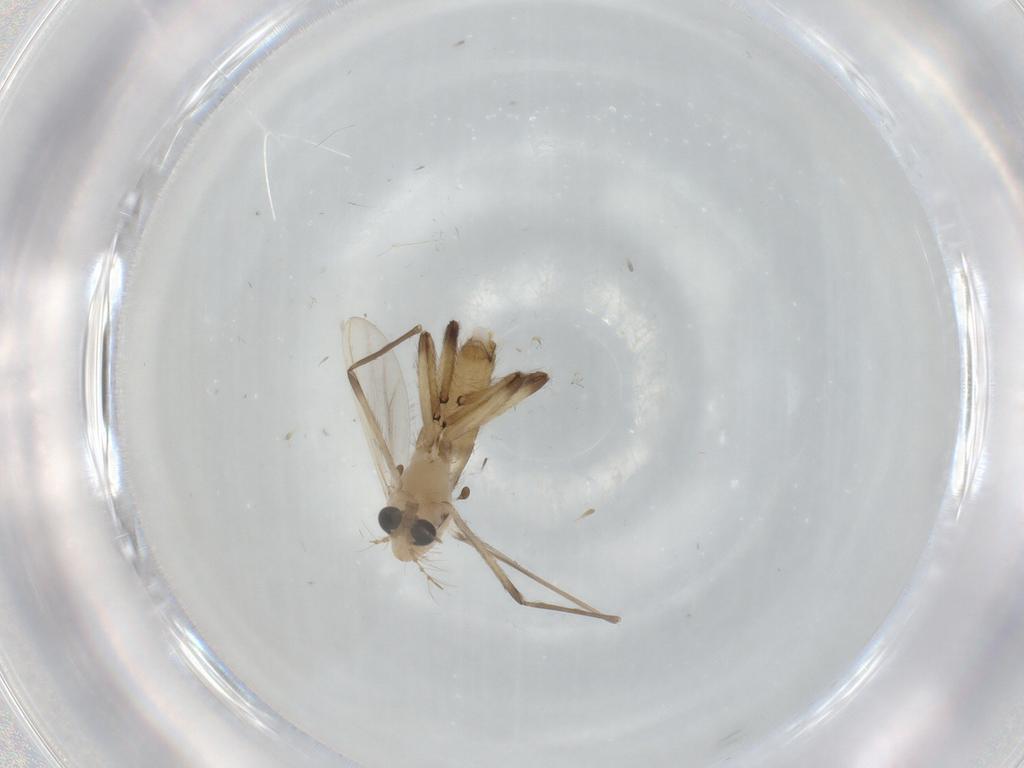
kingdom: Animalia
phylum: Arthropoda
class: Insecta
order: Diptera
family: Chironomidae
